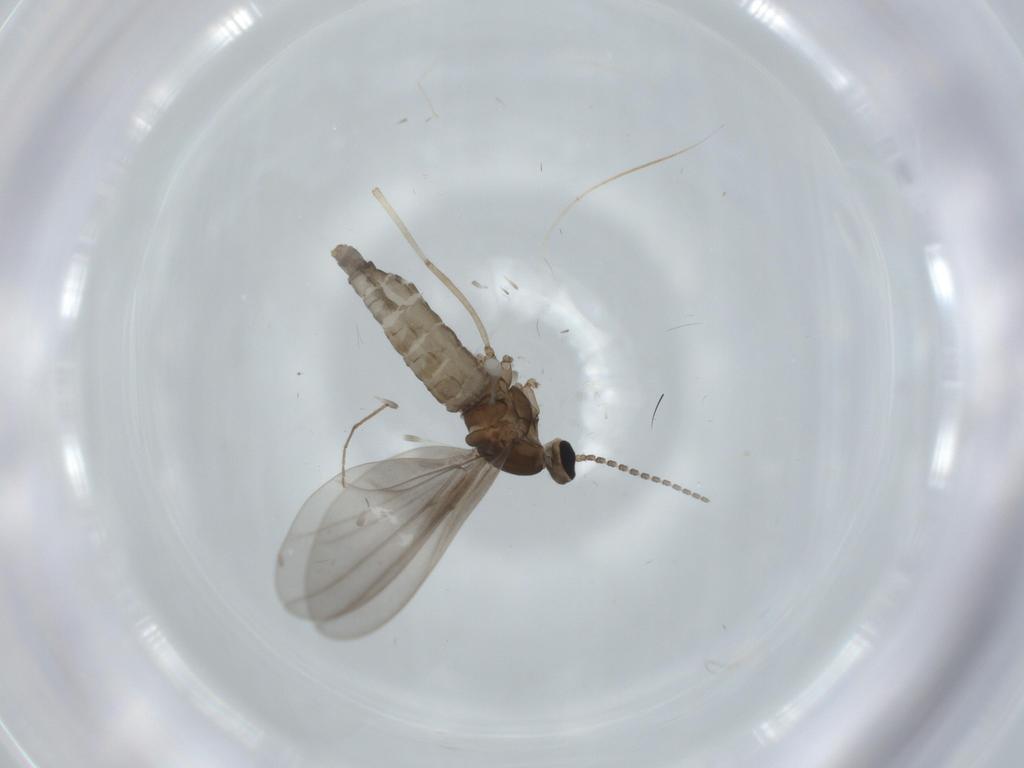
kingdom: Animalia
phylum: Arthropoda
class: Insecta
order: Diptera
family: Cecidomyiidae
